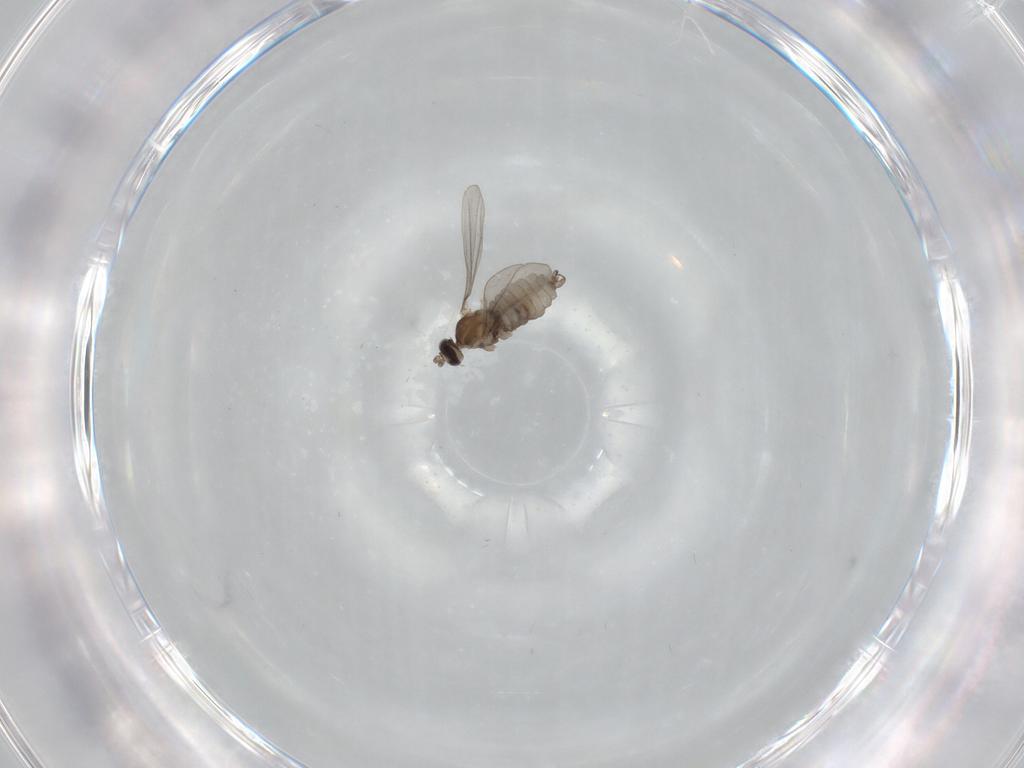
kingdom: Animalia
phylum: Arthropoda
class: Insecta
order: Diptera
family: Cecidomyiidae
